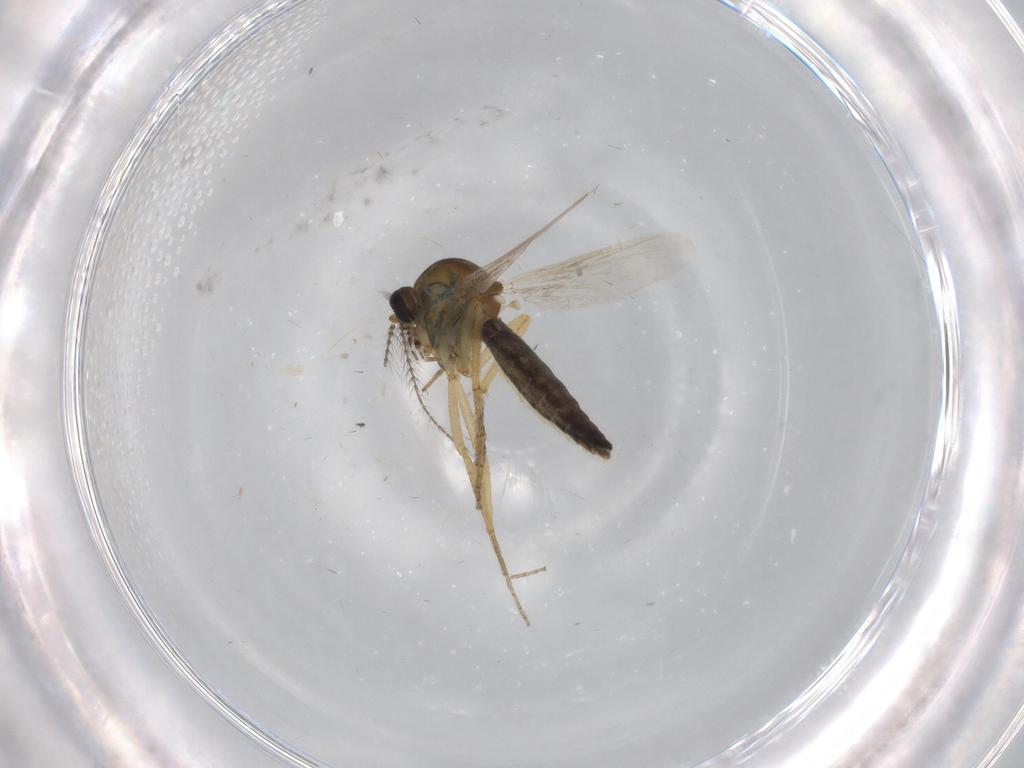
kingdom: Animalia
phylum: Arthropoda
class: Insecta
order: Diptera
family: Ceratopogonidae
